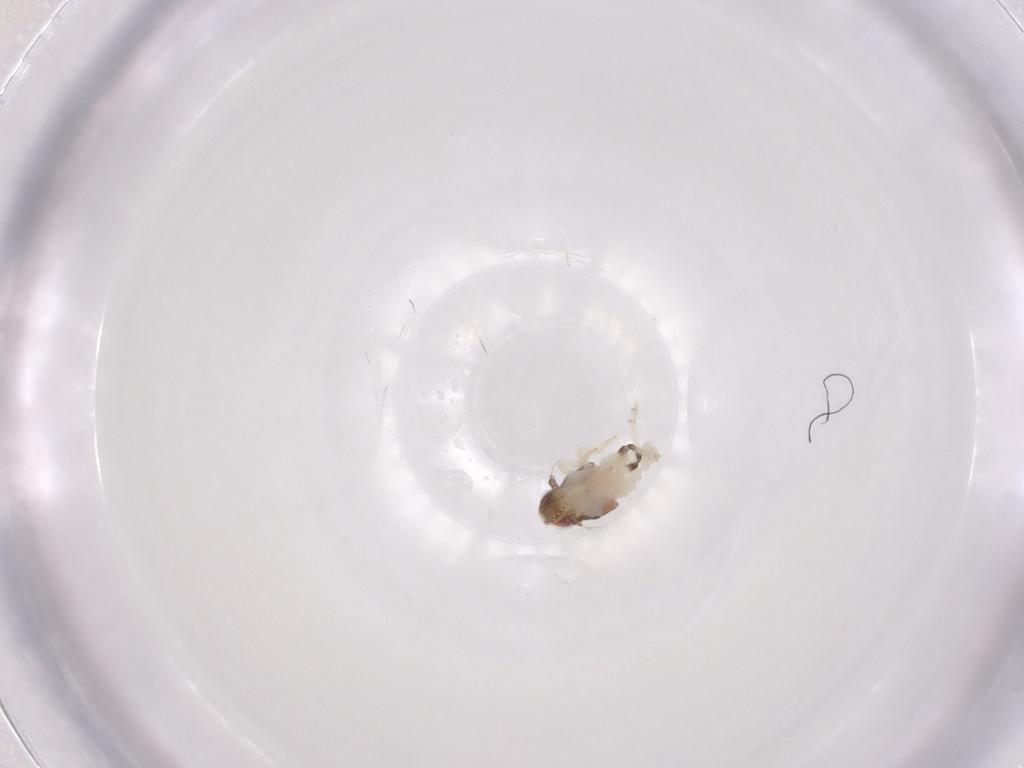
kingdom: Animalia
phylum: Arthropoda
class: Insecta
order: Hemiptera
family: Nogodinidae
